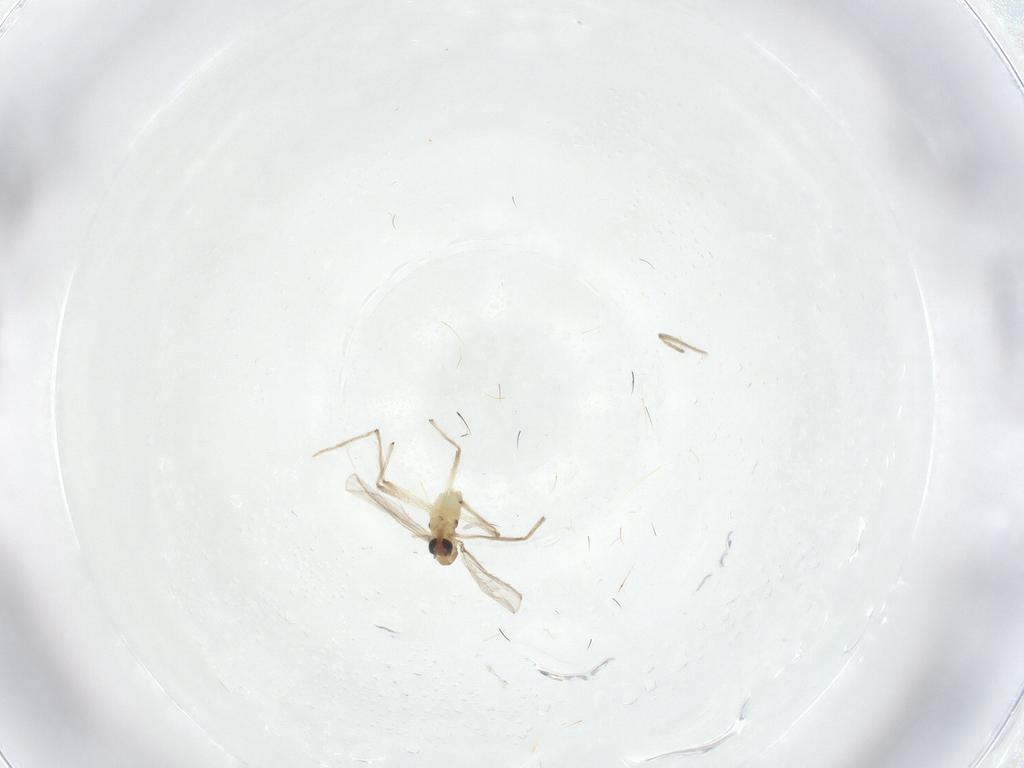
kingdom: Animalia
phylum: Arthropoda
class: Insecta
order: Diptera
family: Chironomidae
